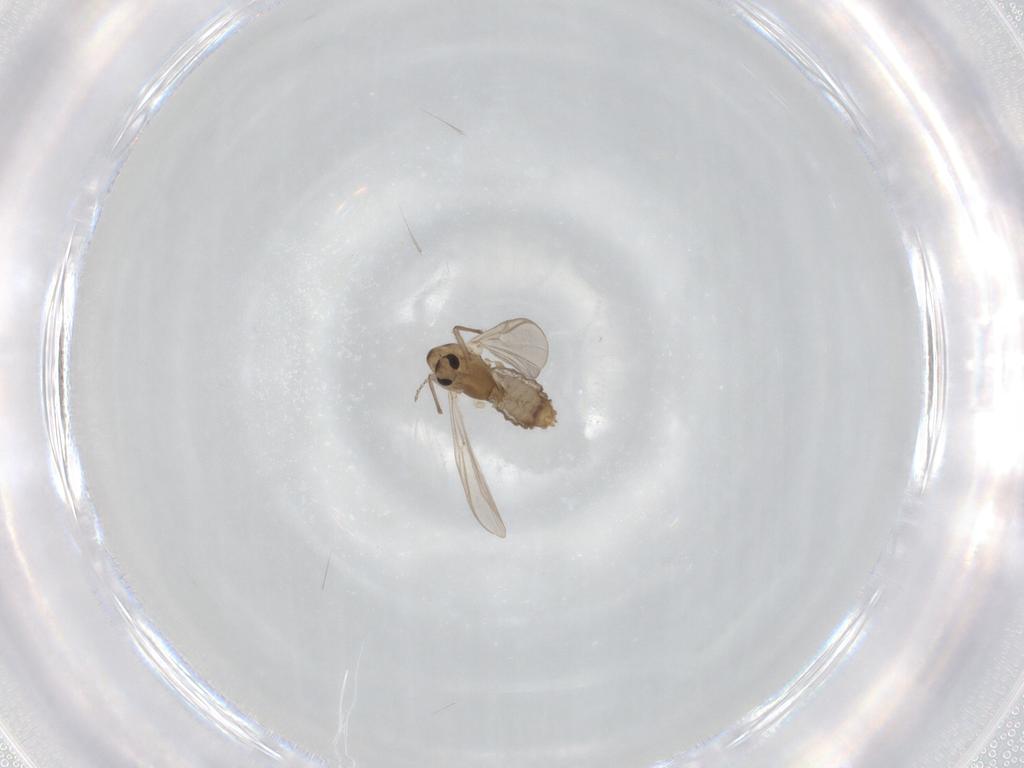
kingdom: Animalia
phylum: Arthropoda
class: Insecta
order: Diptera
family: Chironomidae
